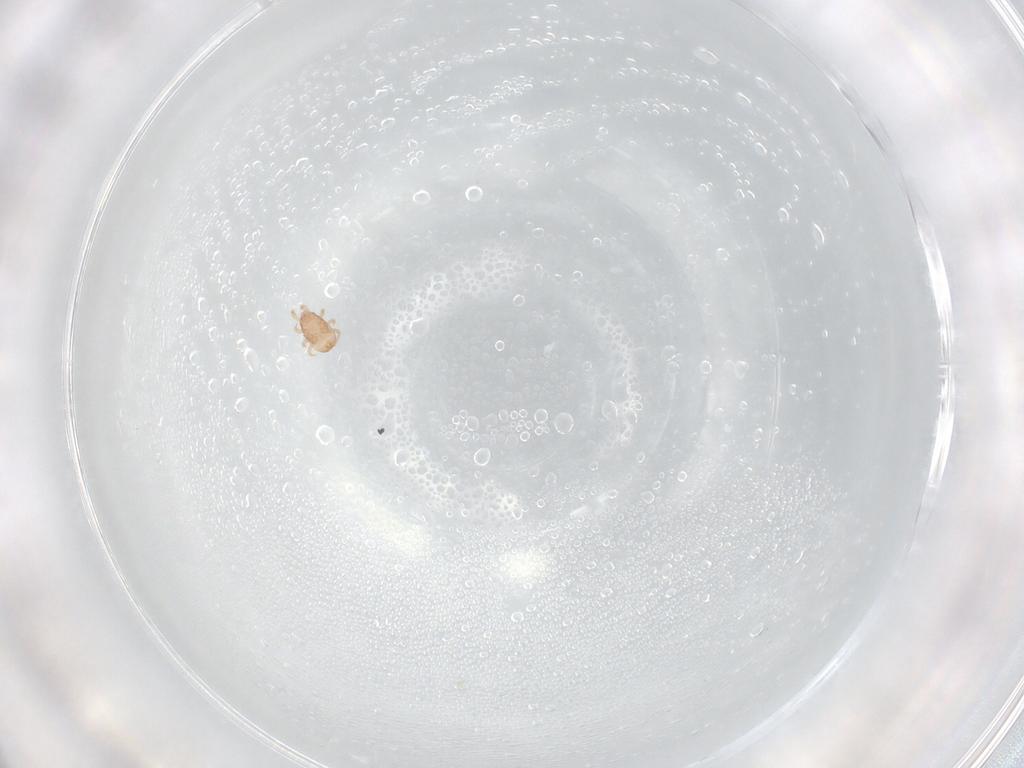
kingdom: Animalia
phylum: Arthropoda
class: Arachnida
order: Mesostigmata
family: Ascidae
